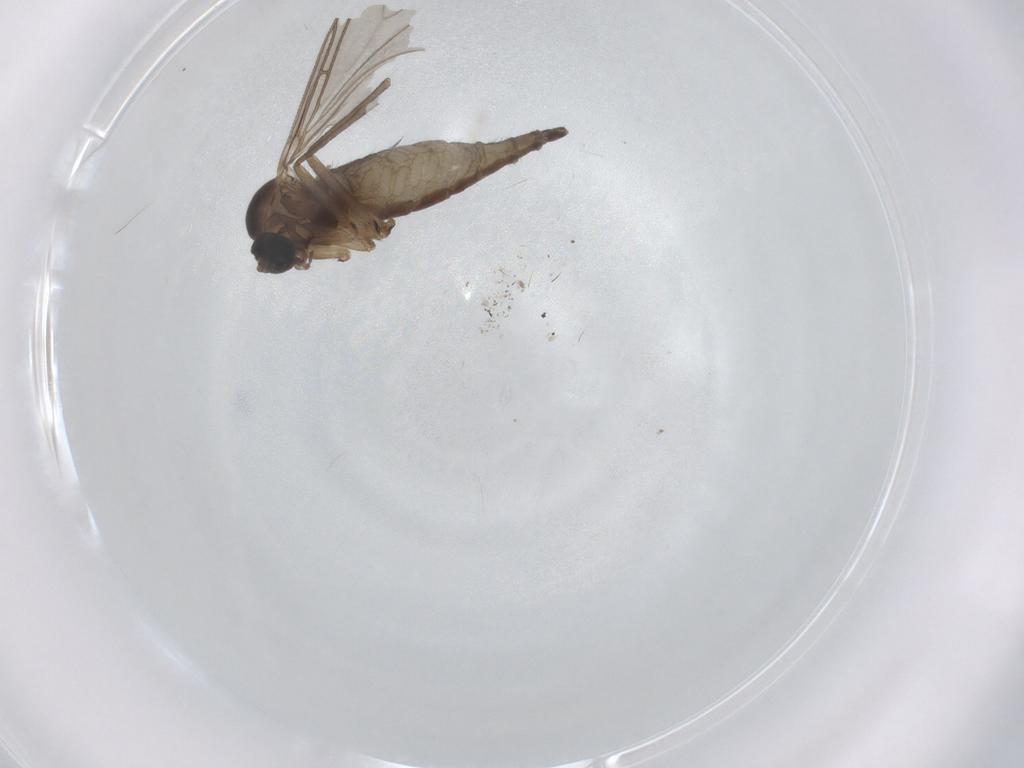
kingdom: Animalia
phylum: Arthropoda
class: Insecta
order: Diptera
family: Sciaridae
